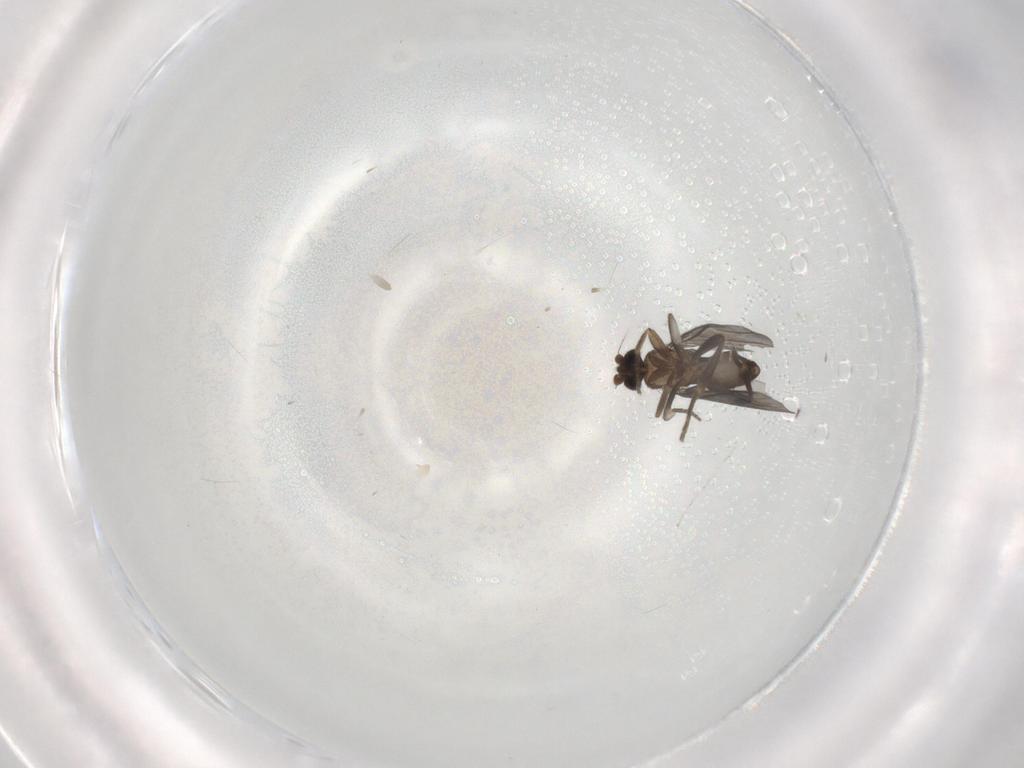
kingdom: Animalia
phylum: Arthropoda
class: Insecta
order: Diptera
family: Phoridae
